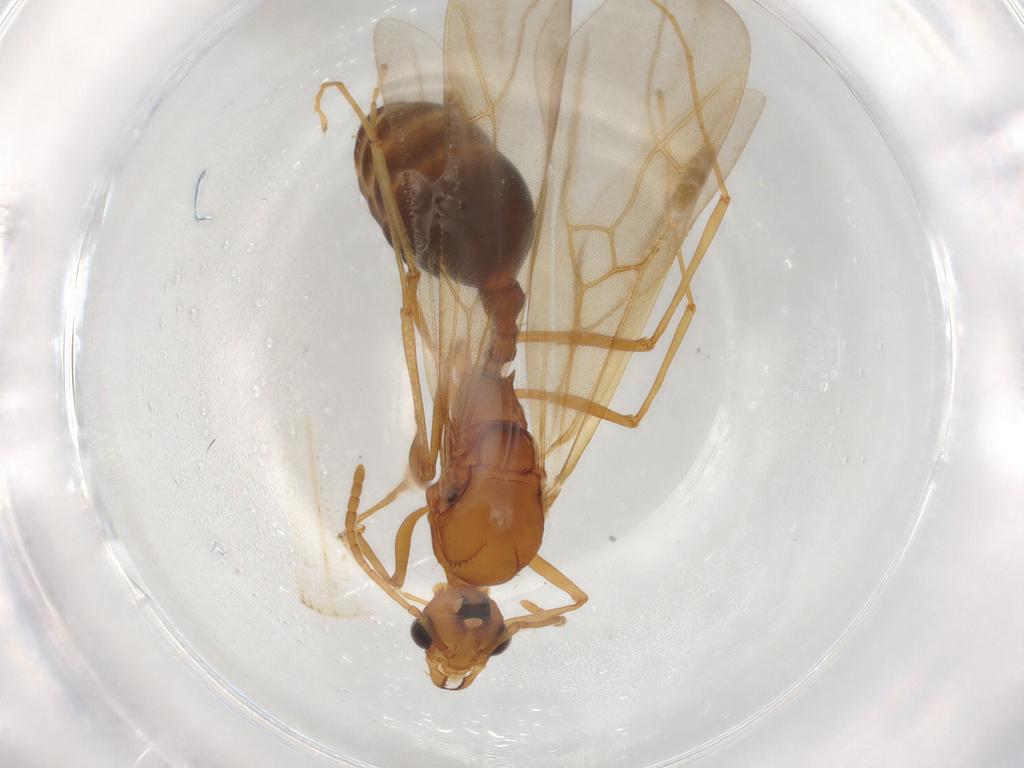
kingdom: Animalia
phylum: Arthropoda
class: Insecta
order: Hymenoptera
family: Formicidae
